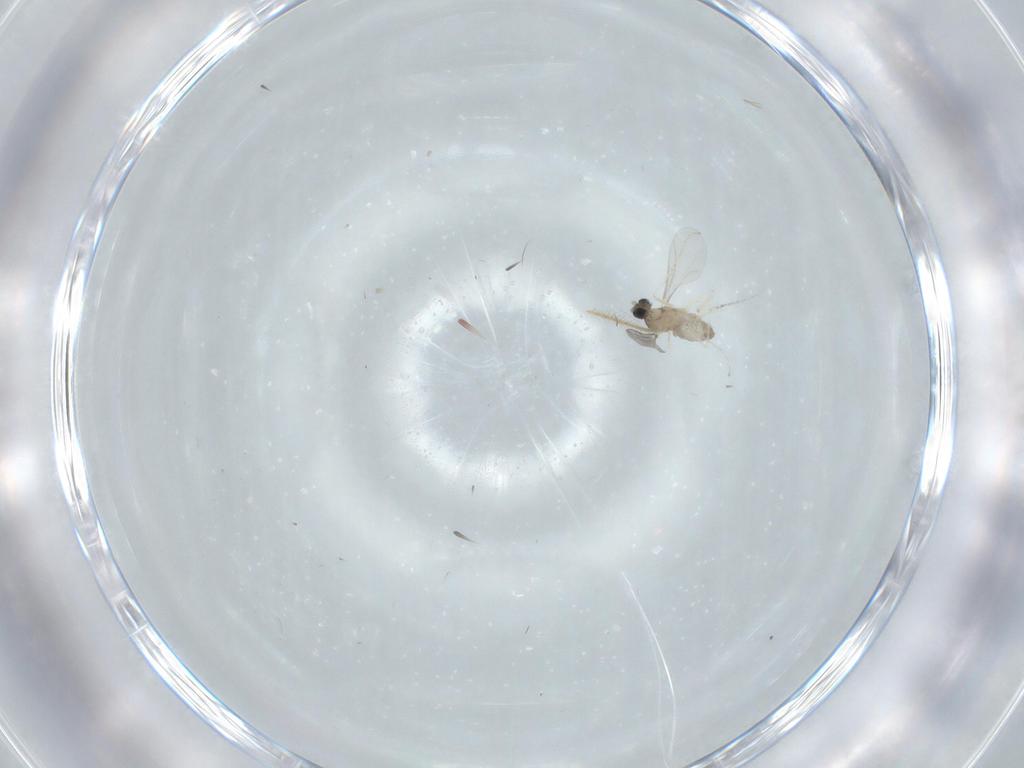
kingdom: Animalia
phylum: Arthropoda
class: Insecta
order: Diptera
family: Cecidomyiidae
